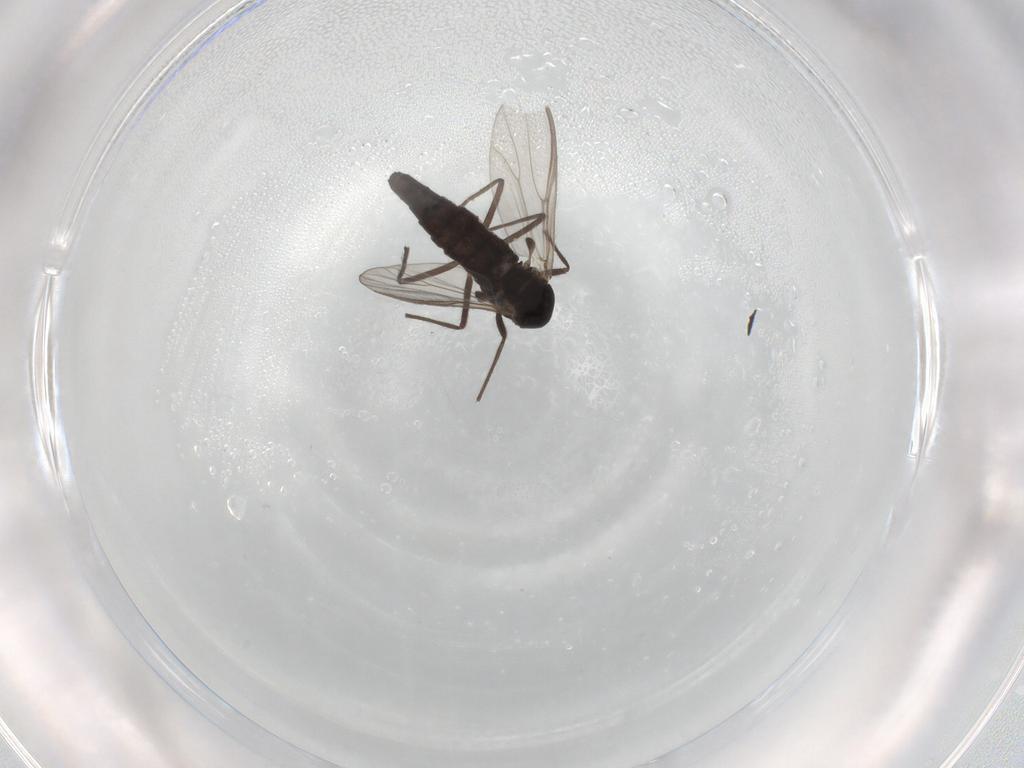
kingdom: Animalia
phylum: Arthropoda
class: Insecta
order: Diptera
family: Chironomidae
